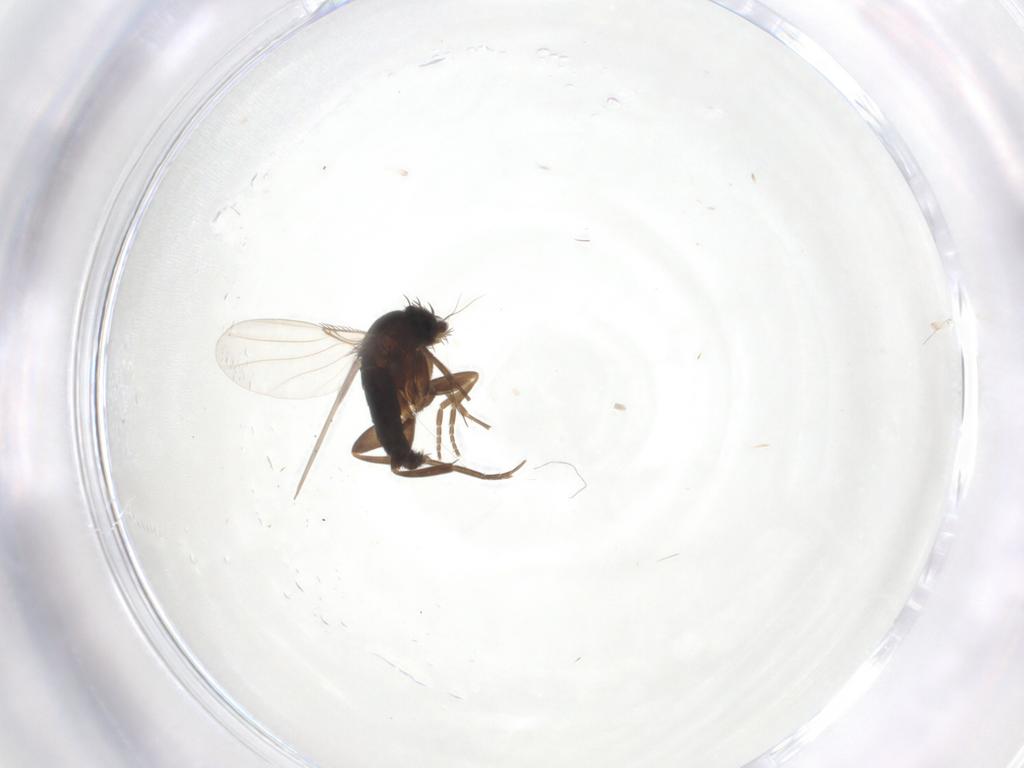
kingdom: Animalia
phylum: Arthropoda
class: Insecta
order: Diptera
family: Phoridae
